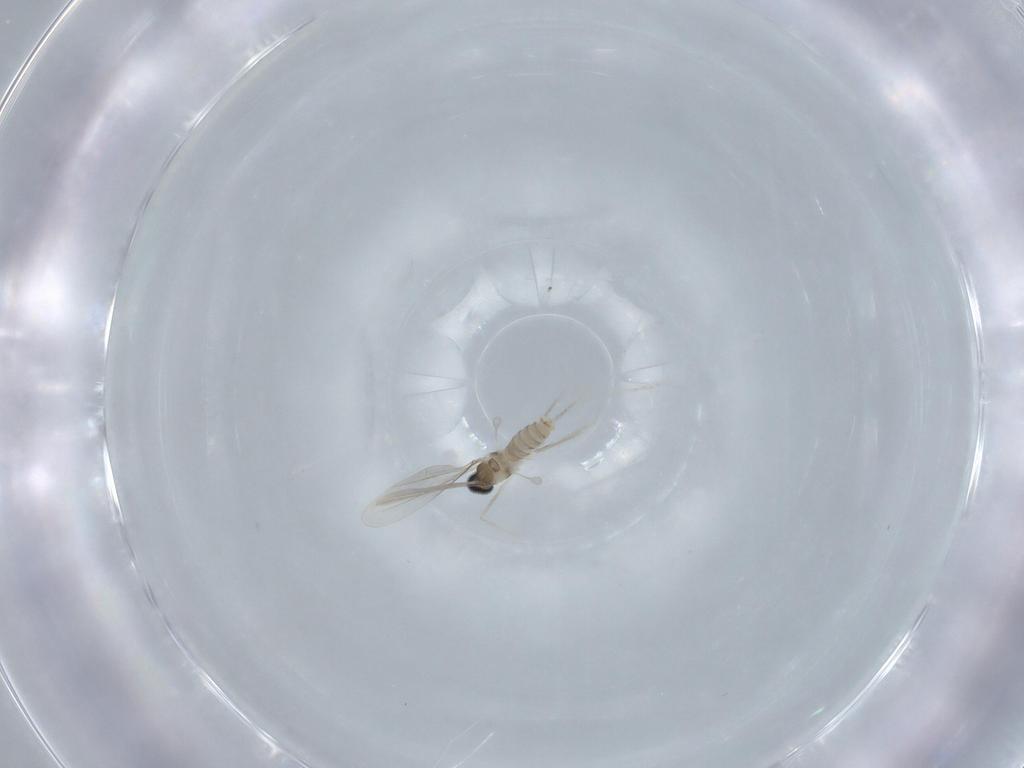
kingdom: Animalia
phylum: Arthropoda
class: Insecta
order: Diptera
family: Cecidomyiidae
